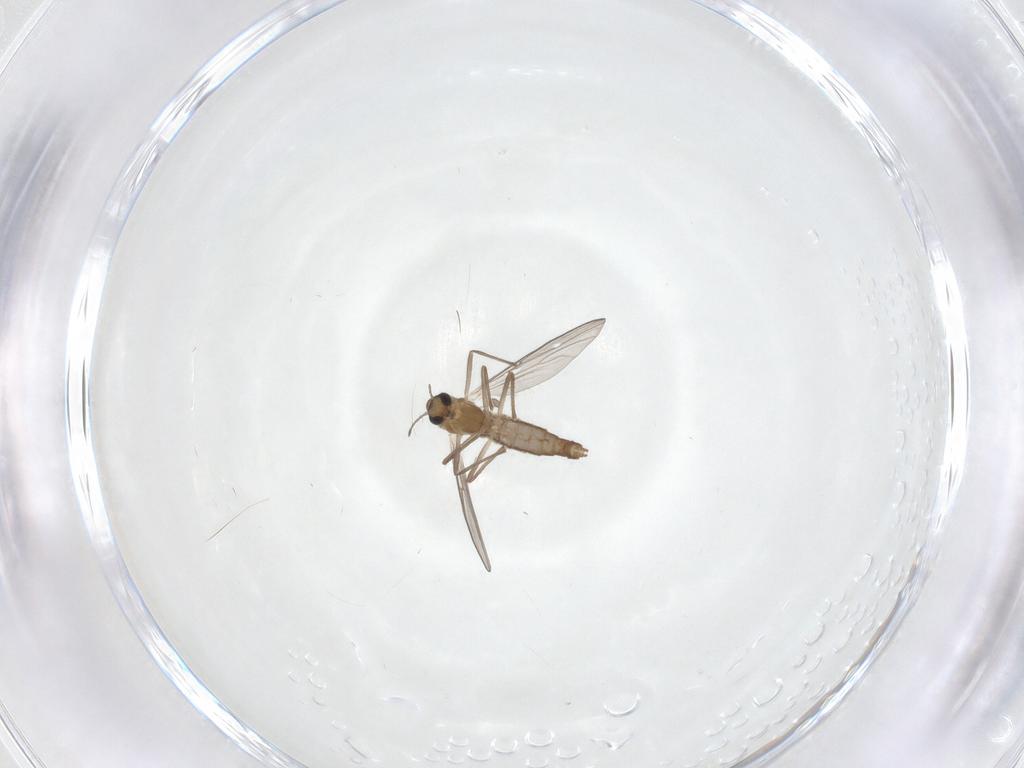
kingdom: Animalia
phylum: Arthropoda
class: Insecta
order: Diptera
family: Chironomidae
